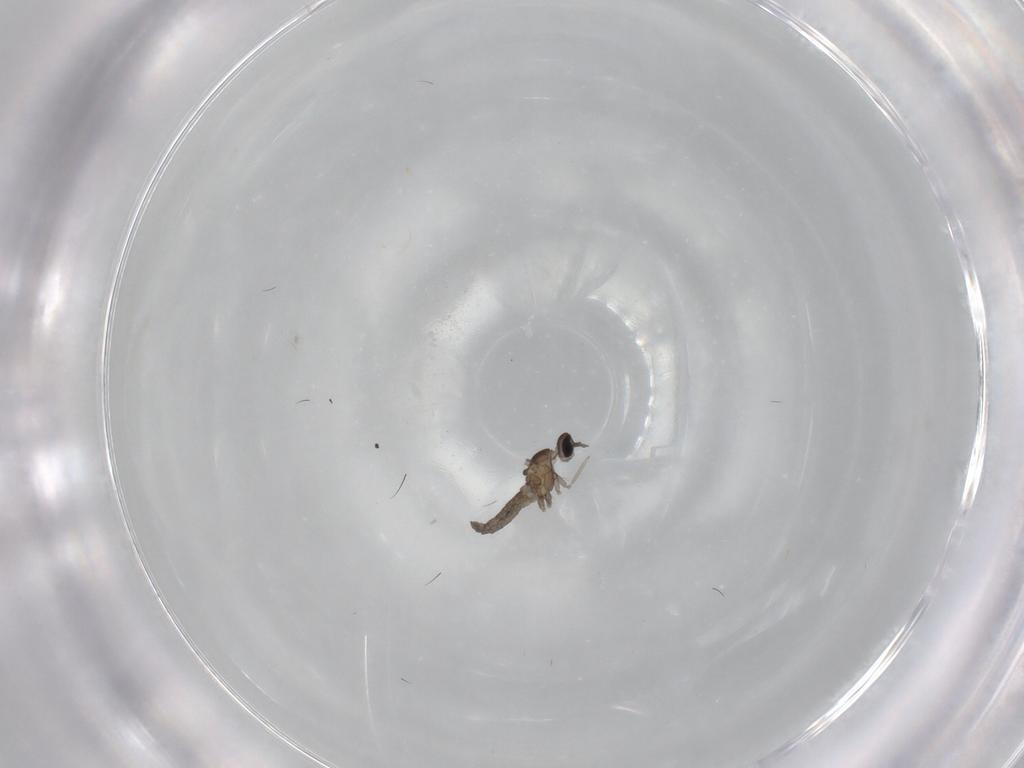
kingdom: Animalia
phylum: Arthropoda
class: Insecta
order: Diptera
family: Cecidomyiidae
